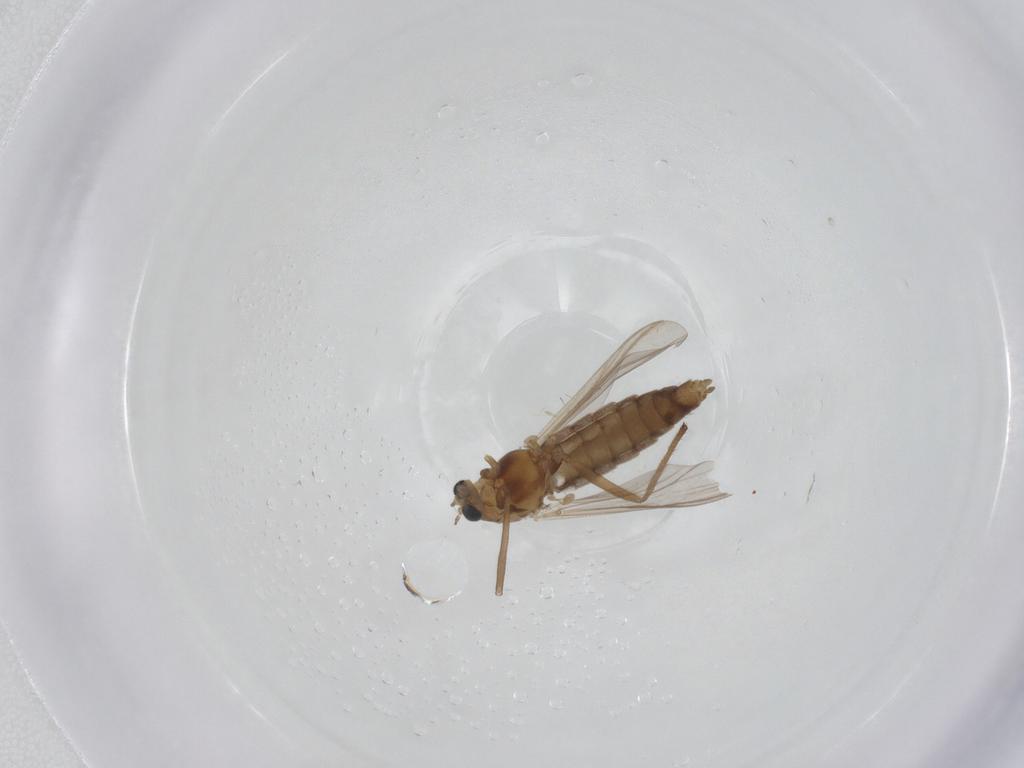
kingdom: Animalia
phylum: Arthropoda
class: Insecta
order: Diptera
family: Chironomidae
